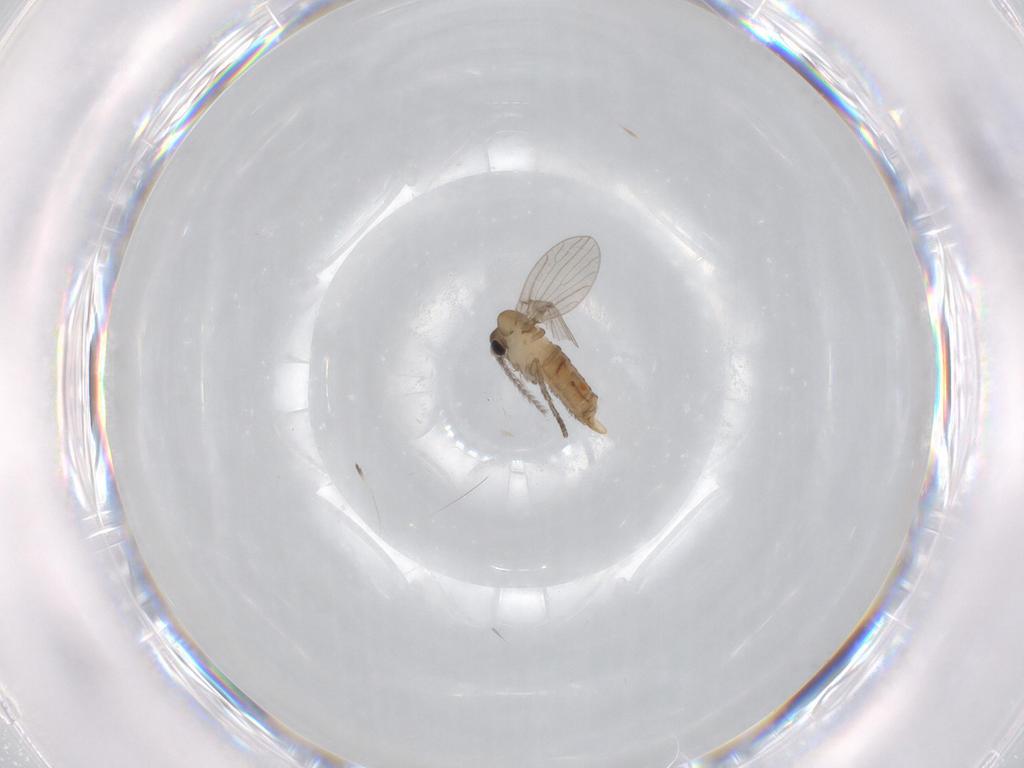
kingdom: Animalia
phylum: Arthropoda
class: Insecta
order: Diptera
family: Psychodidae
